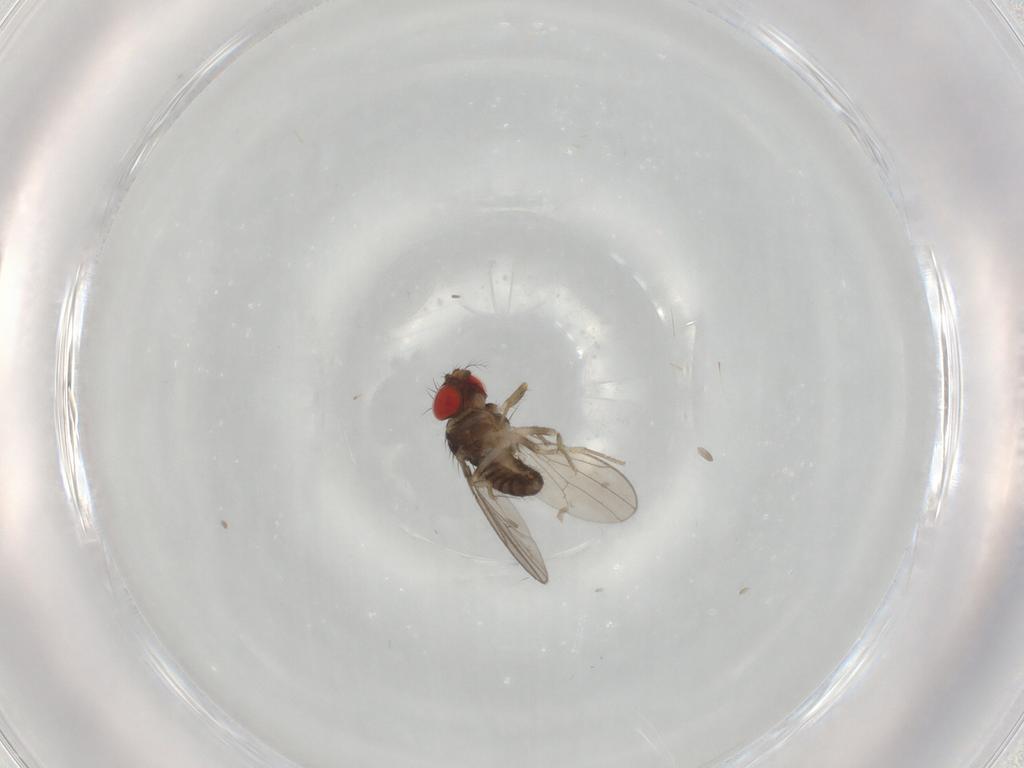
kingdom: Animalia
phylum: Arthropoda
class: Insecta
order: Diptera
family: Drosophilidae
